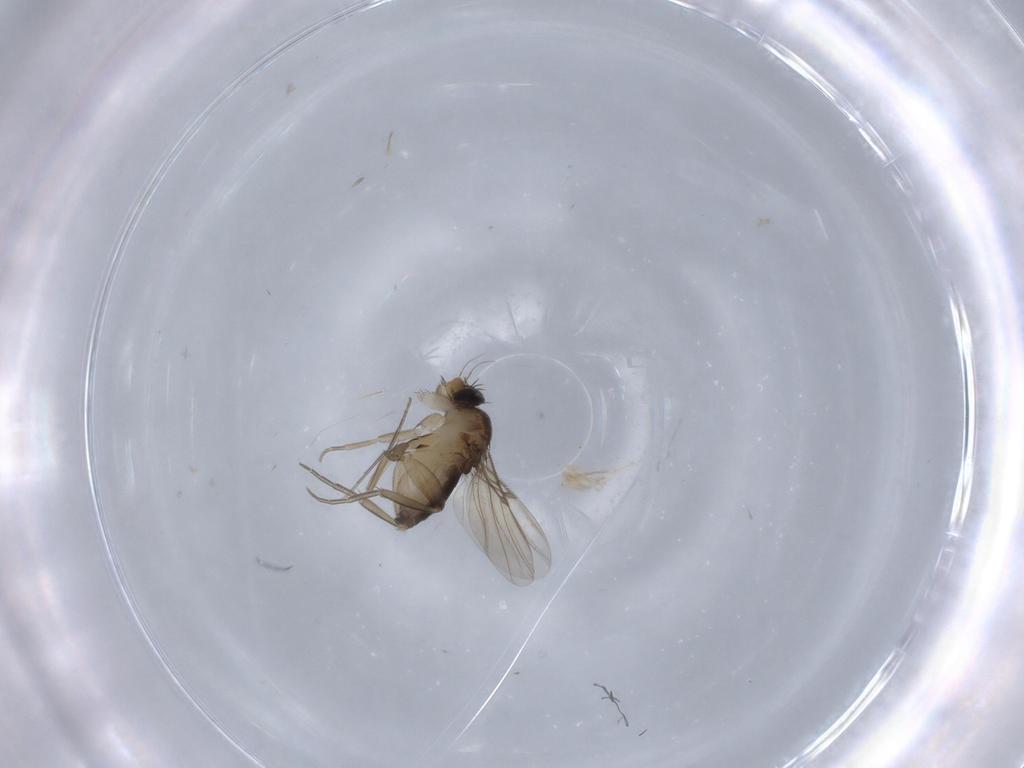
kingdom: Animalia
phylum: Arthropoda
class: Insecta
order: Diptera
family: Phoridae
